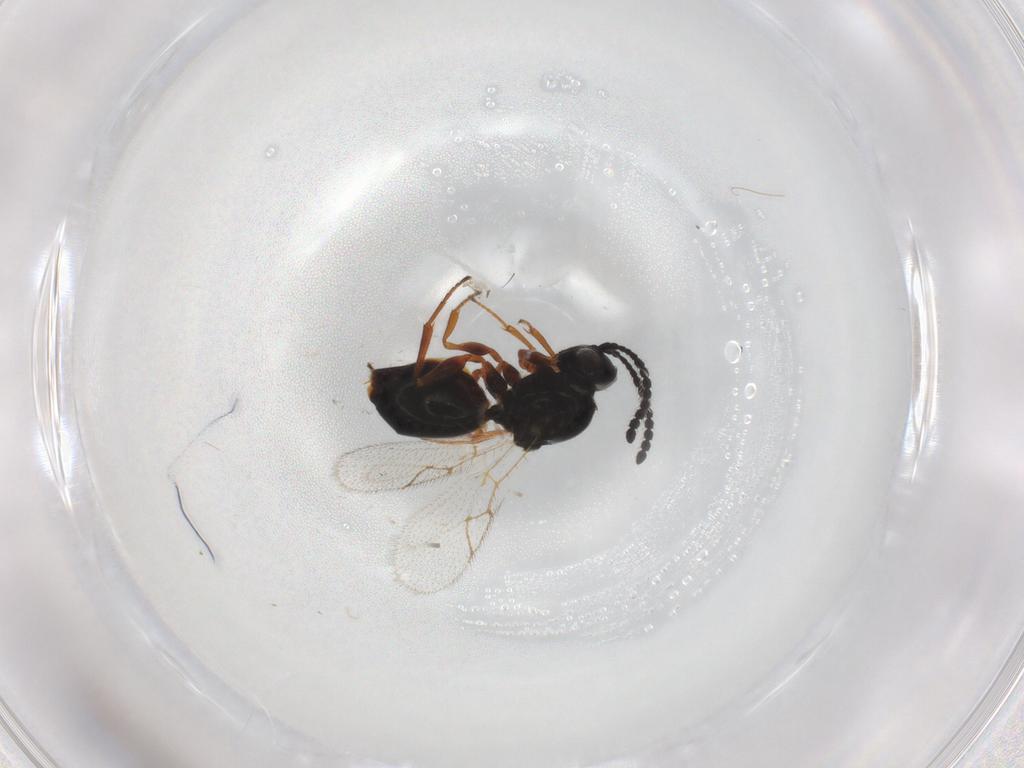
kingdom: Animalia
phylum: Arthropoda
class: Insecta
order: Hymenoptera
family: Figitidae
